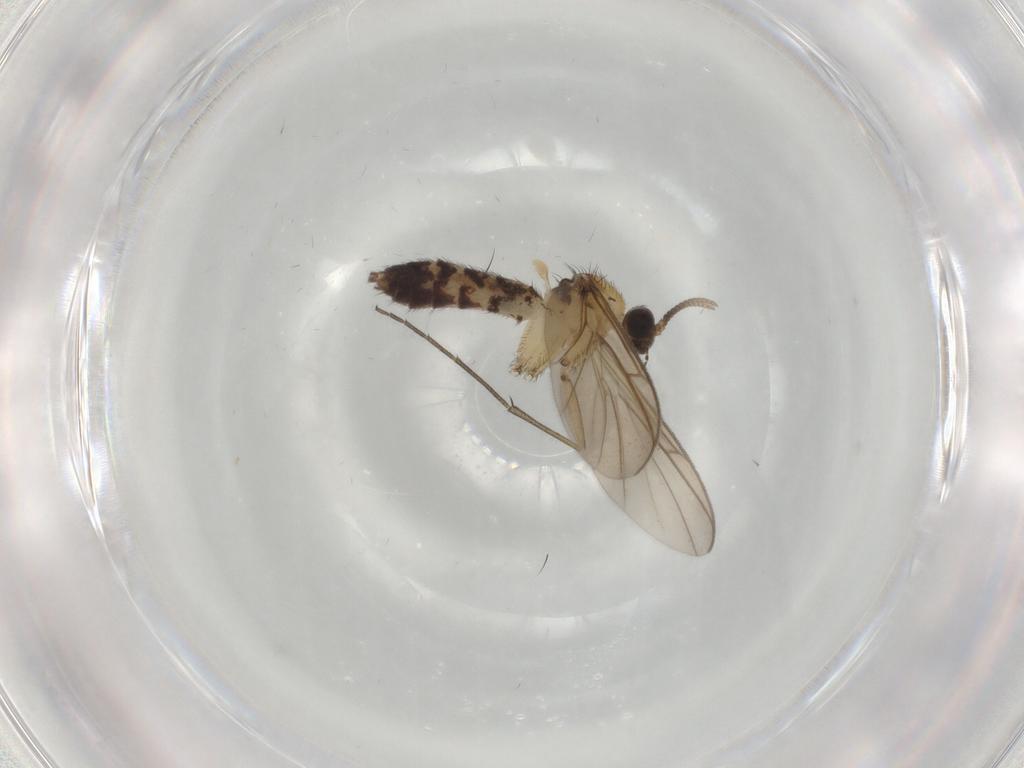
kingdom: Animalia
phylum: Arthropoda
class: Insecta
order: Diptera
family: Keroplatidae
